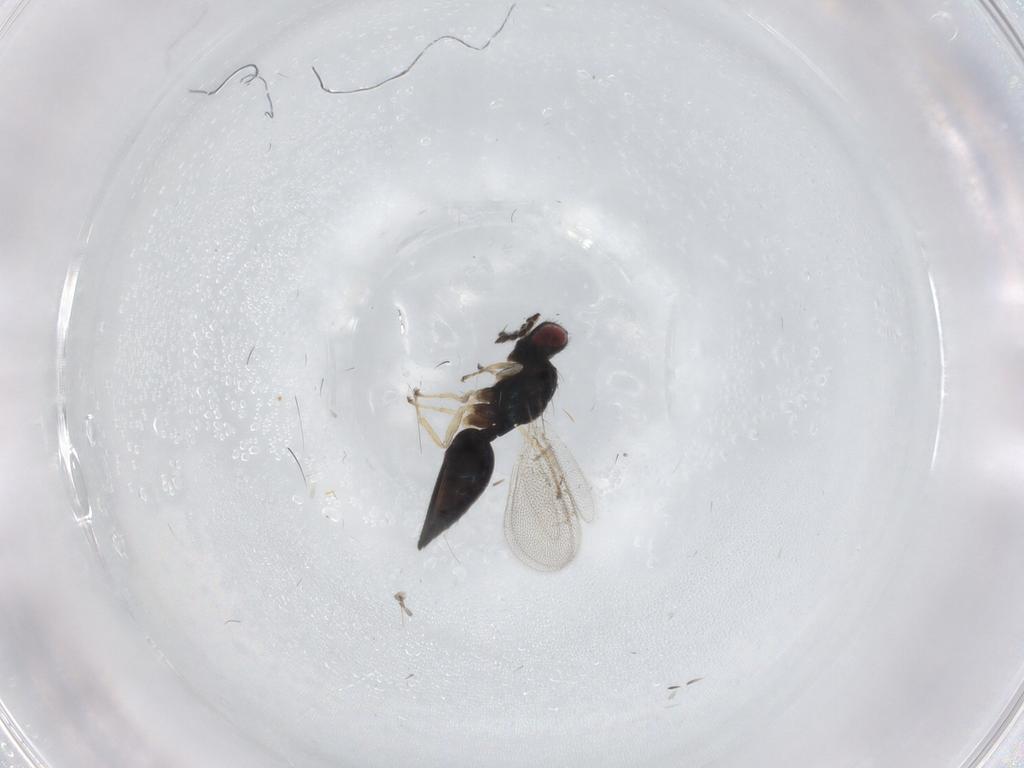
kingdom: Animalia
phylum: Arthropoda
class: Insecta
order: Hymenoptera
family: Eulophidae
